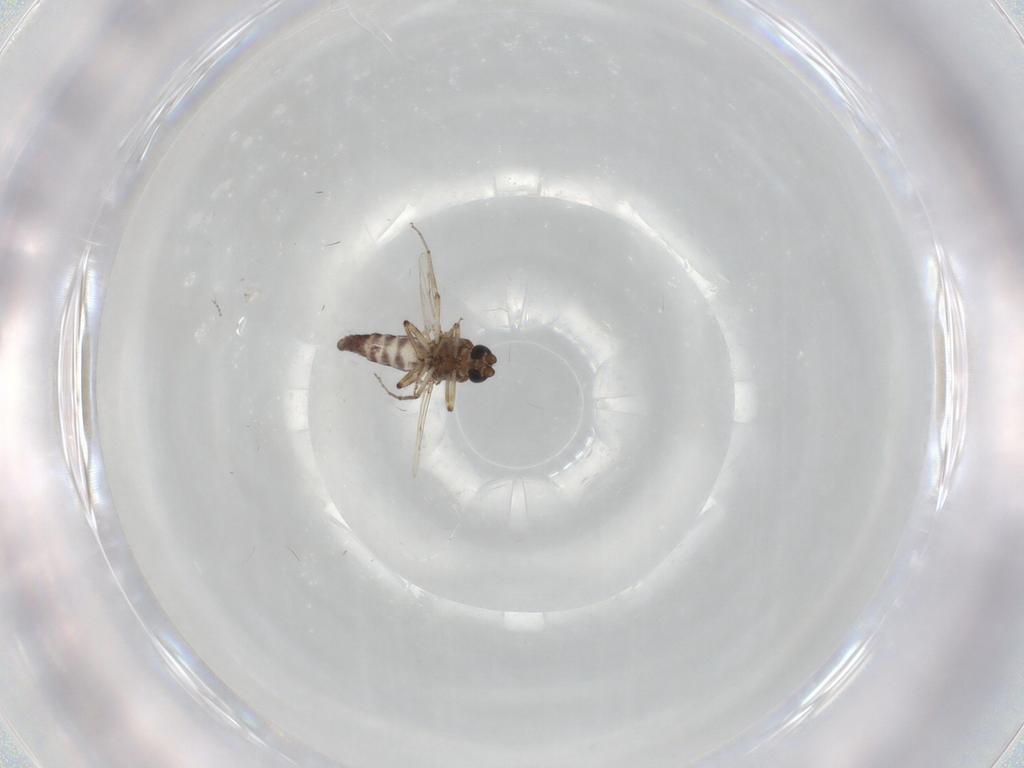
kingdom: Animalia
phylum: Arthropoda
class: Insecta
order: Diptera
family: Ceratopogonidae
